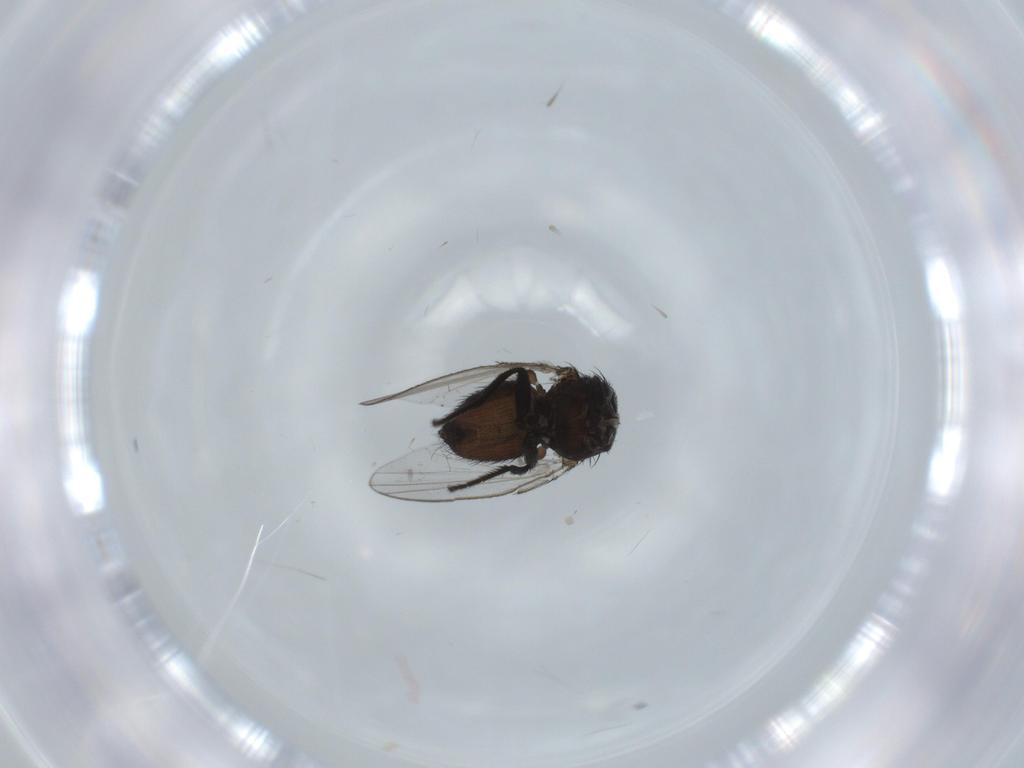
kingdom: Animalia
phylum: Arthropoda
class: Insecta
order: Diptera
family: Milichiidae
